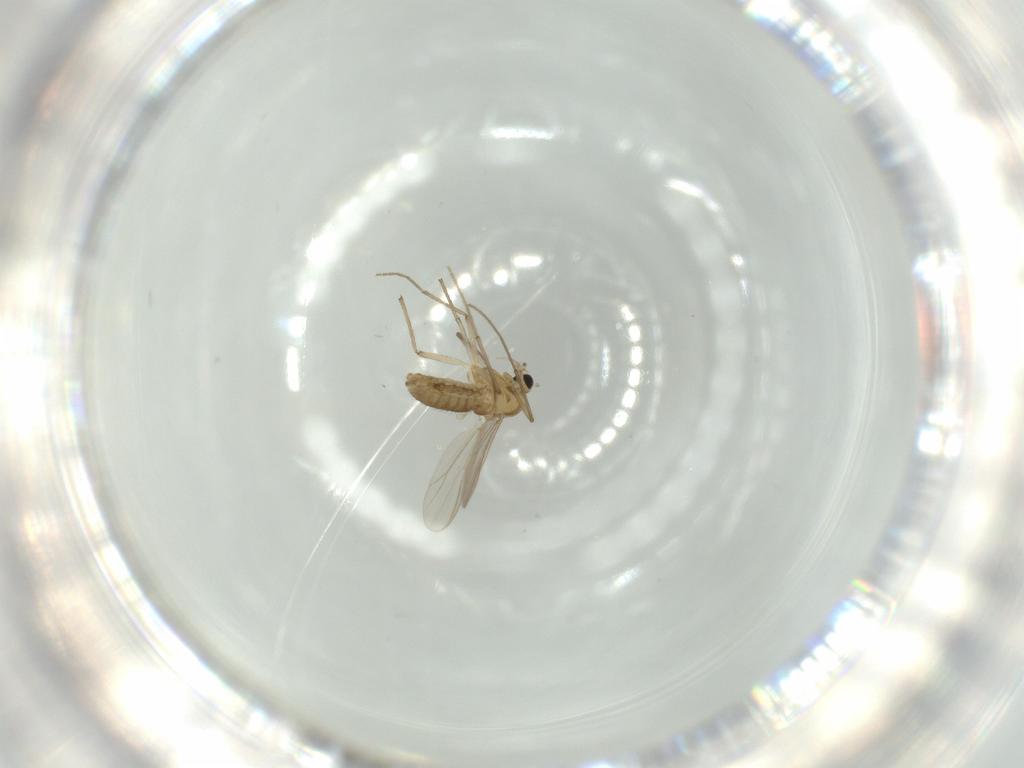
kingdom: Animalia
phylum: Arthropoda
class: Insecta
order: Diptera
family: Chironomidae
